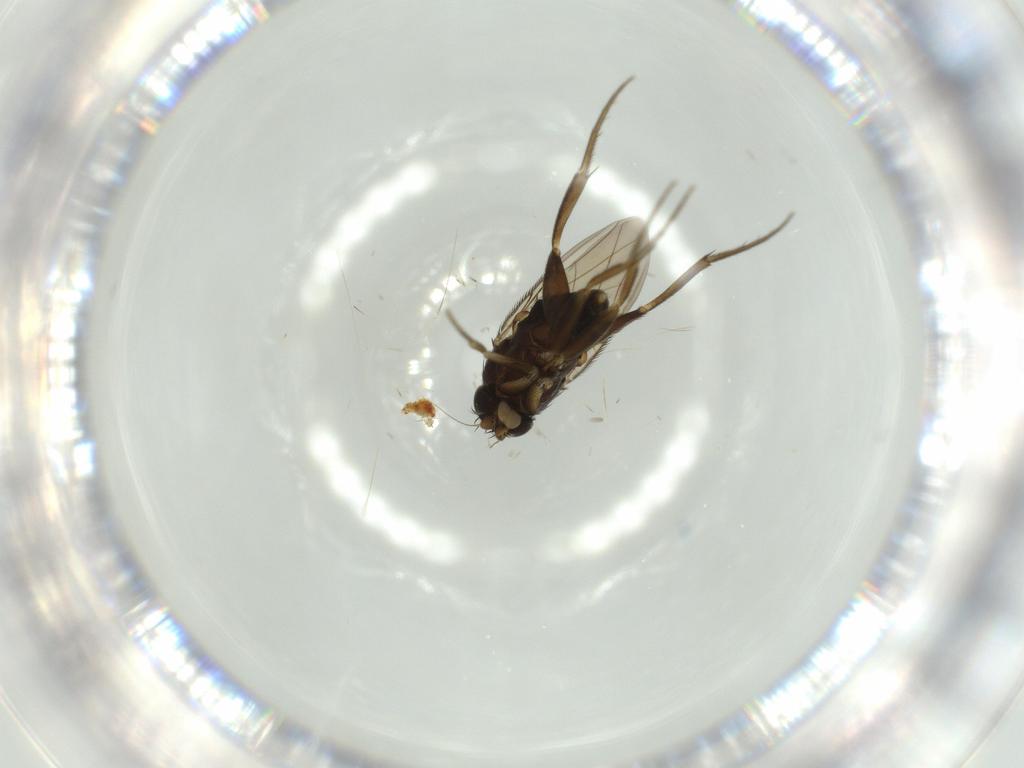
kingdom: Animalia
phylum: Arthropoda
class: Insecta
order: Diptera
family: Phoridae
